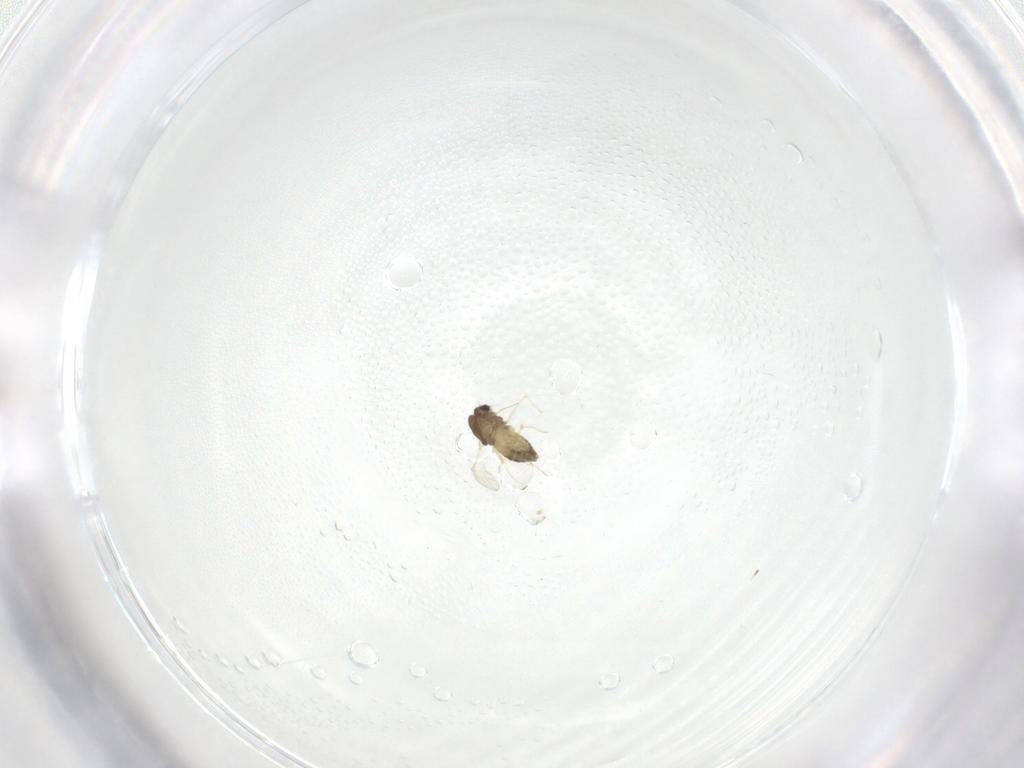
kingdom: Animalia
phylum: Arthropoda
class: Insecta
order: Diptera
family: Chironomidae
